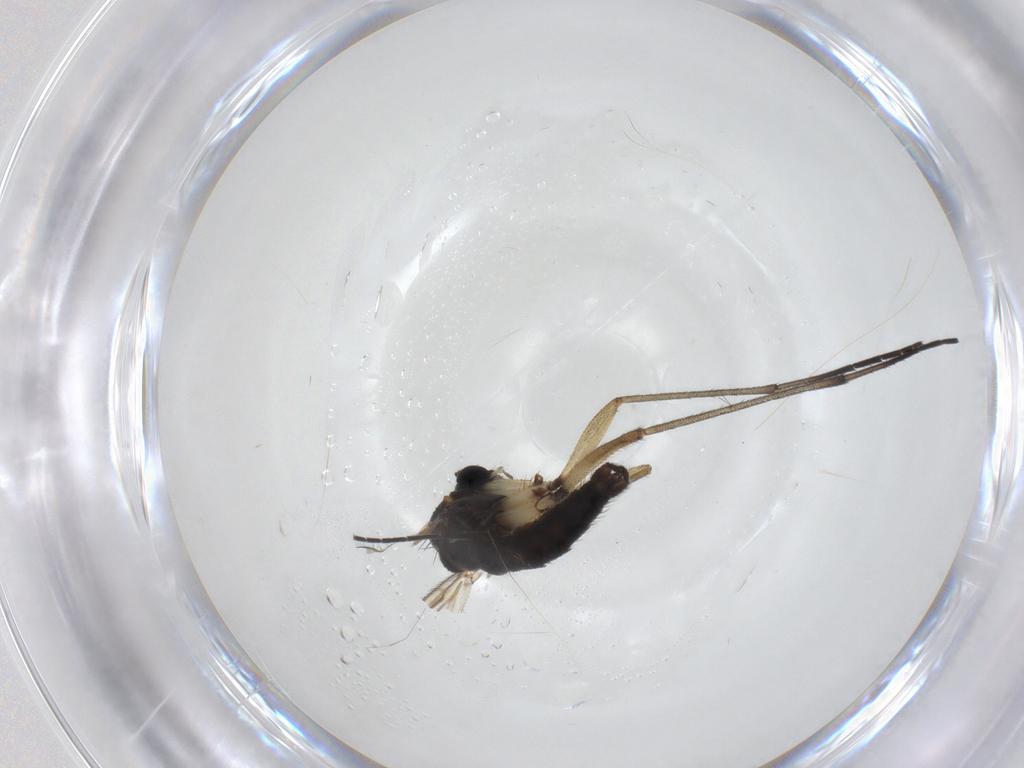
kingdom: Animalia
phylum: Arthropoda
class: Insecta
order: Diptera
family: Sciaridae
